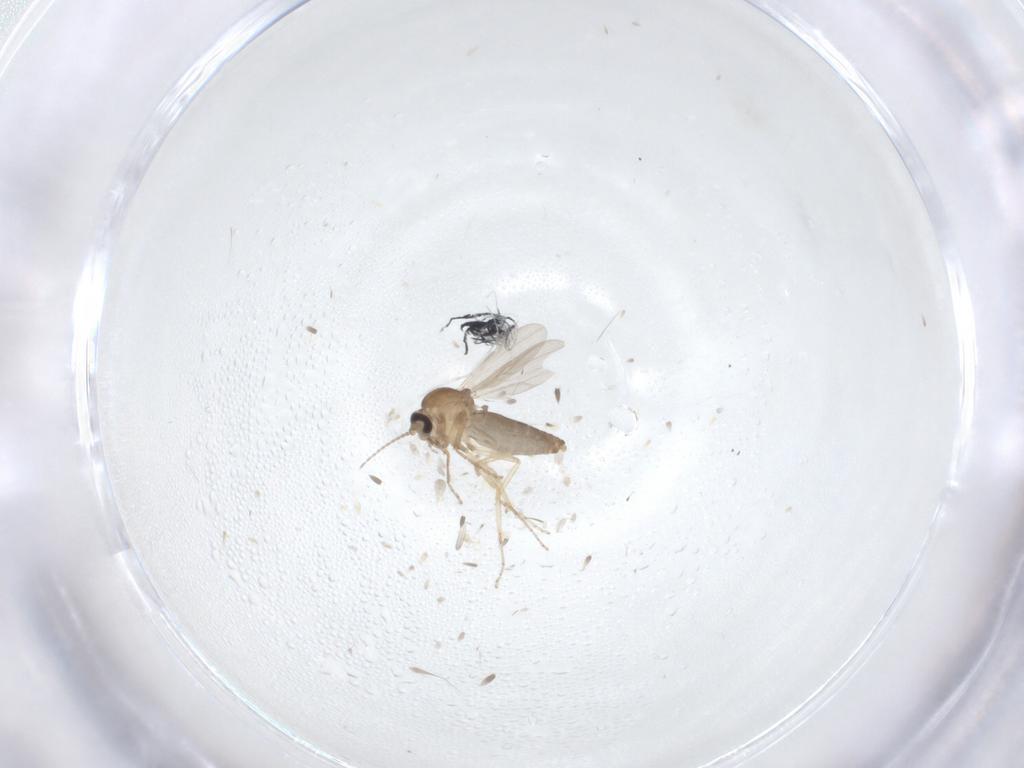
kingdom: Animalia
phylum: Arthropoda
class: Insecta
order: Diptera
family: Ceratopogonidae
